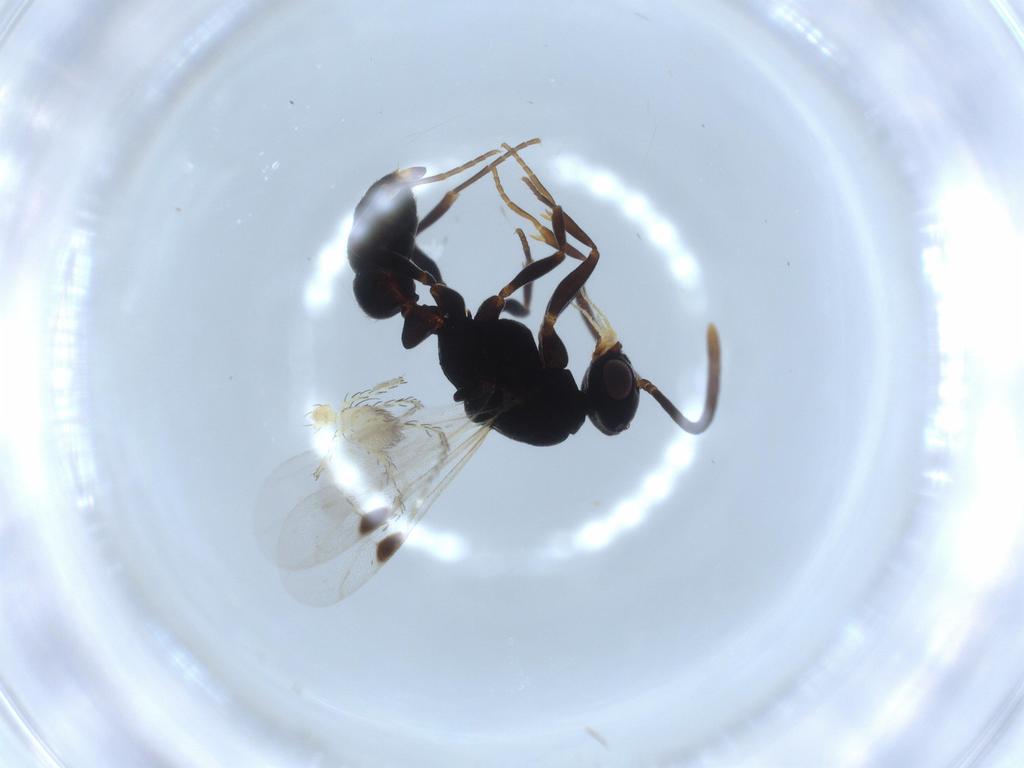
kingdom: Animalia
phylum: Arthropoda
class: Insecta
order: Hymenoptera
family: Formicidae
